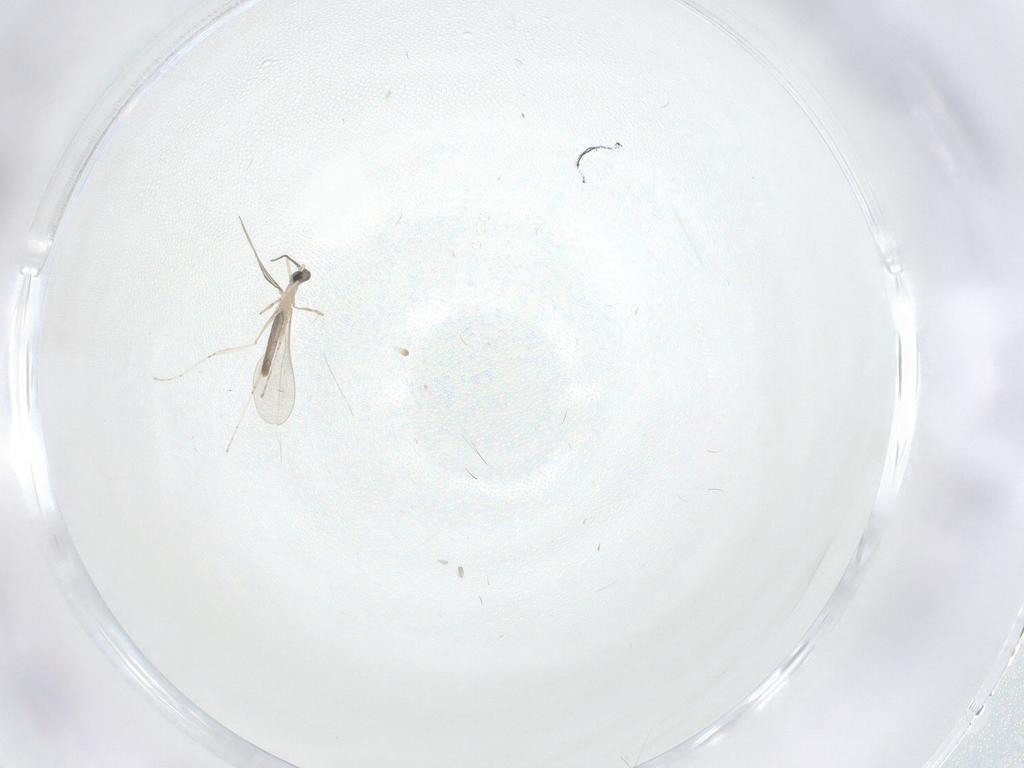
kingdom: Animalia
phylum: Arthropoda
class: Insecta
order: Diptera
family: Cecidomyiidae
